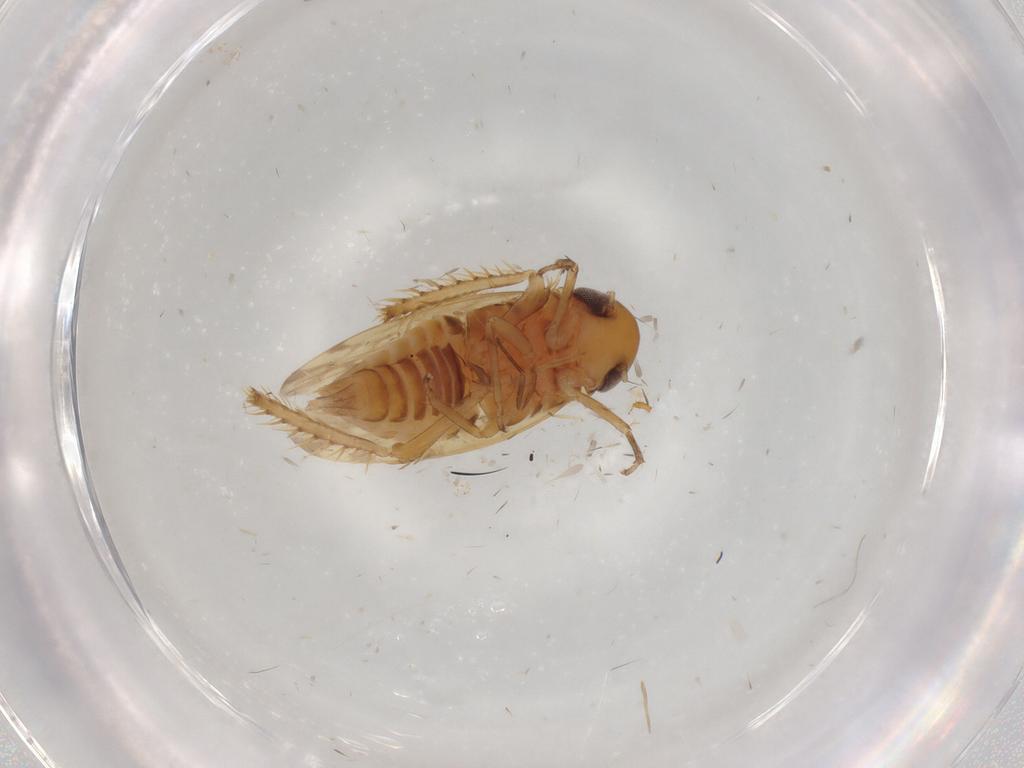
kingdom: Animalia
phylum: Arthropoda
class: Insecta
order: Hemiptera
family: Cicadellidae
